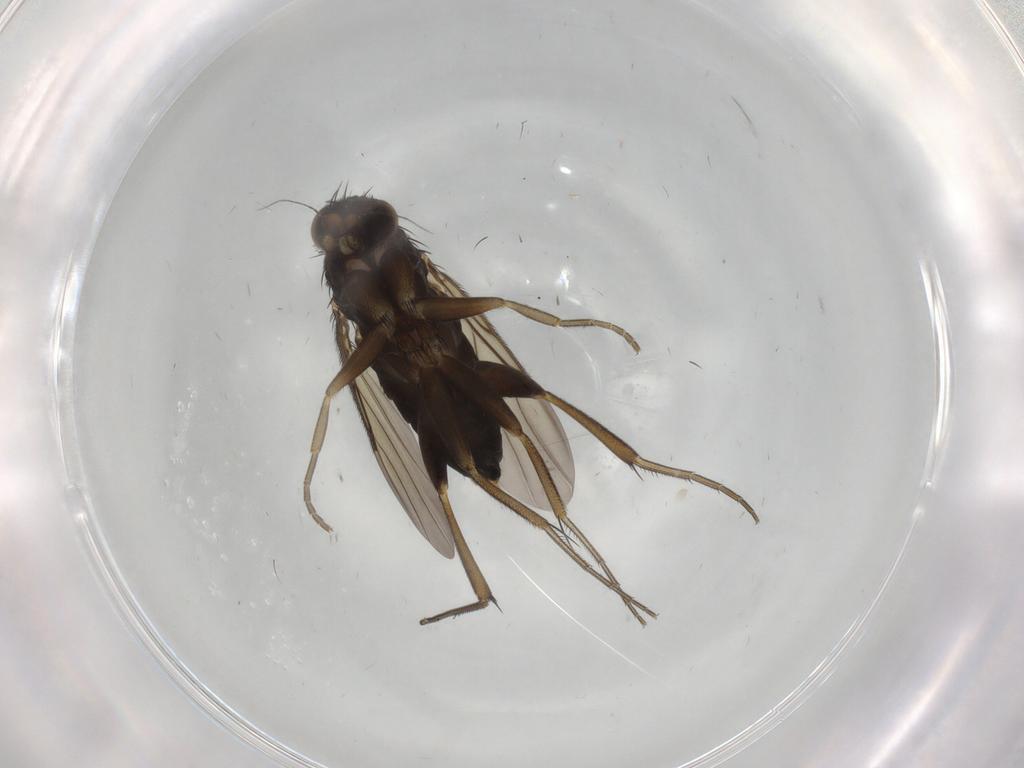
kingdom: Animalia
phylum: Arthropoda
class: Insecta
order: Diptera
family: Phoridae
